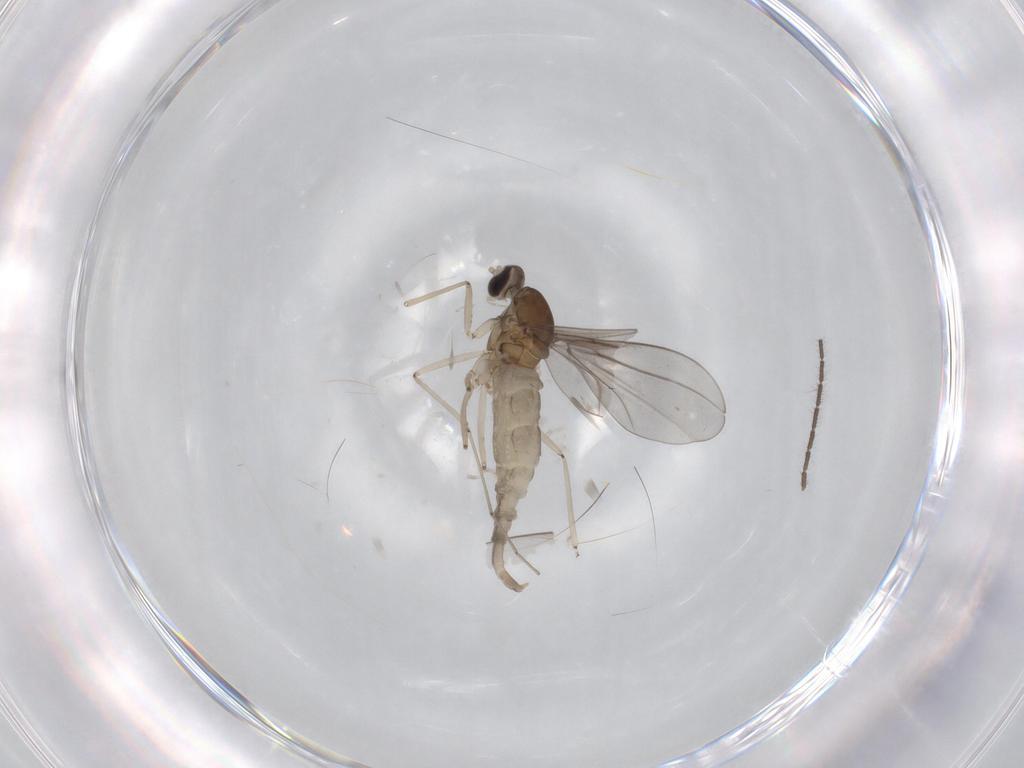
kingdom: Animalia
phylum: Arthropoda
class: Insecta
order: Diptera
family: Cecidomyiidae
